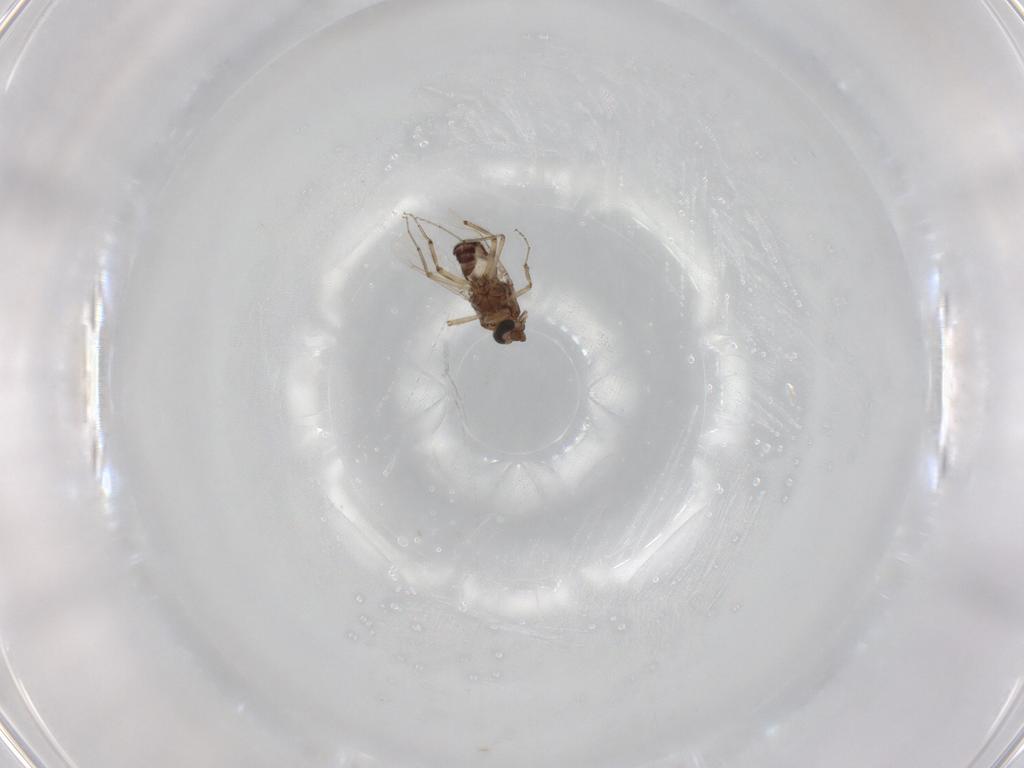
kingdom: Animalia
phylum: Arthropoda
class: Insecta
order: Diptera
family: Ceratopogonidae
